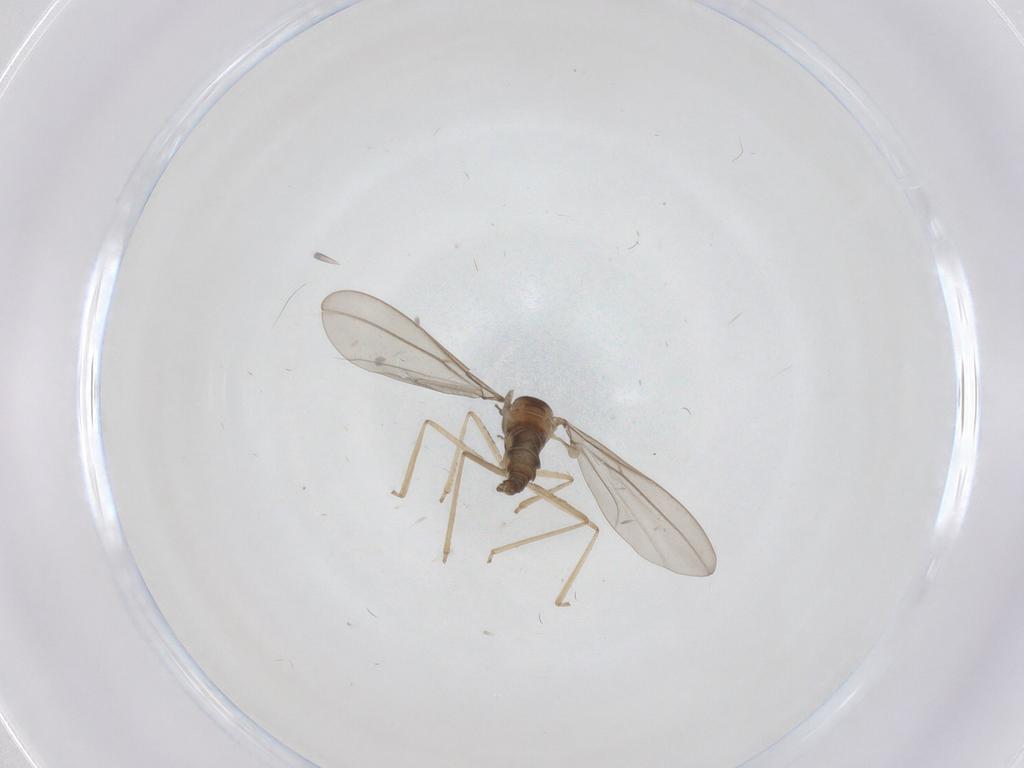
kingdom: Animalia
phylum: Arthropoda
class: Insecta
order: Diptera
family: Cecidomyiidae
